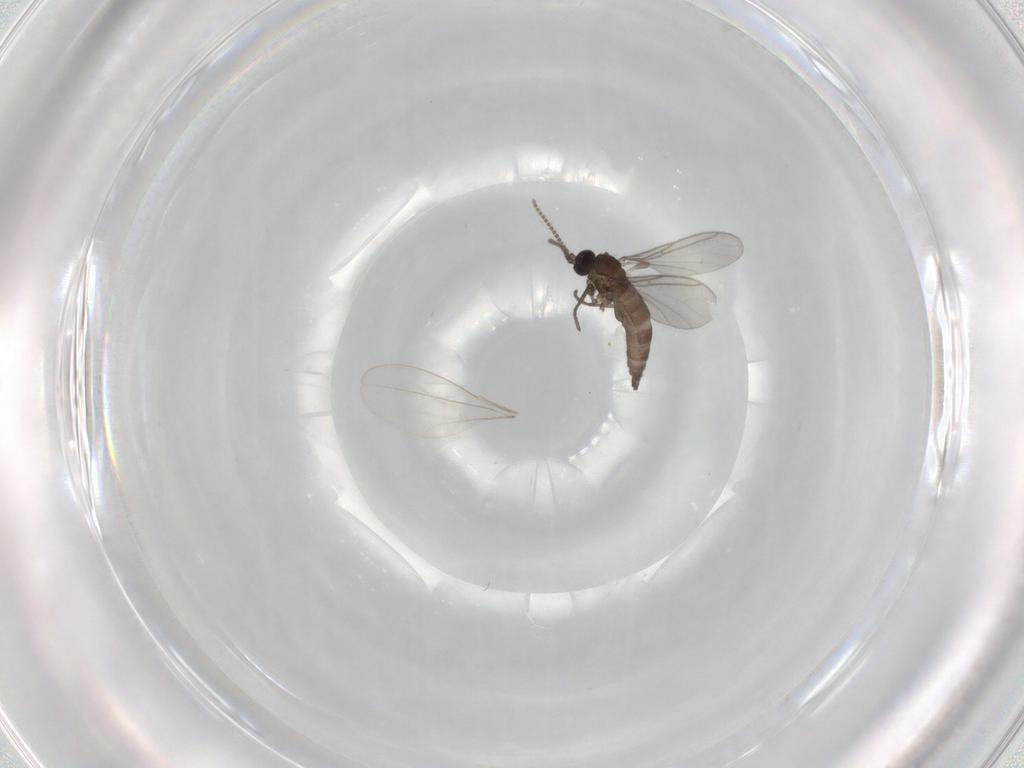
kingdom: Animalia
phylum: Arthropoda
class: Insecta
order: Diptera
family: Cecidomyiidae
